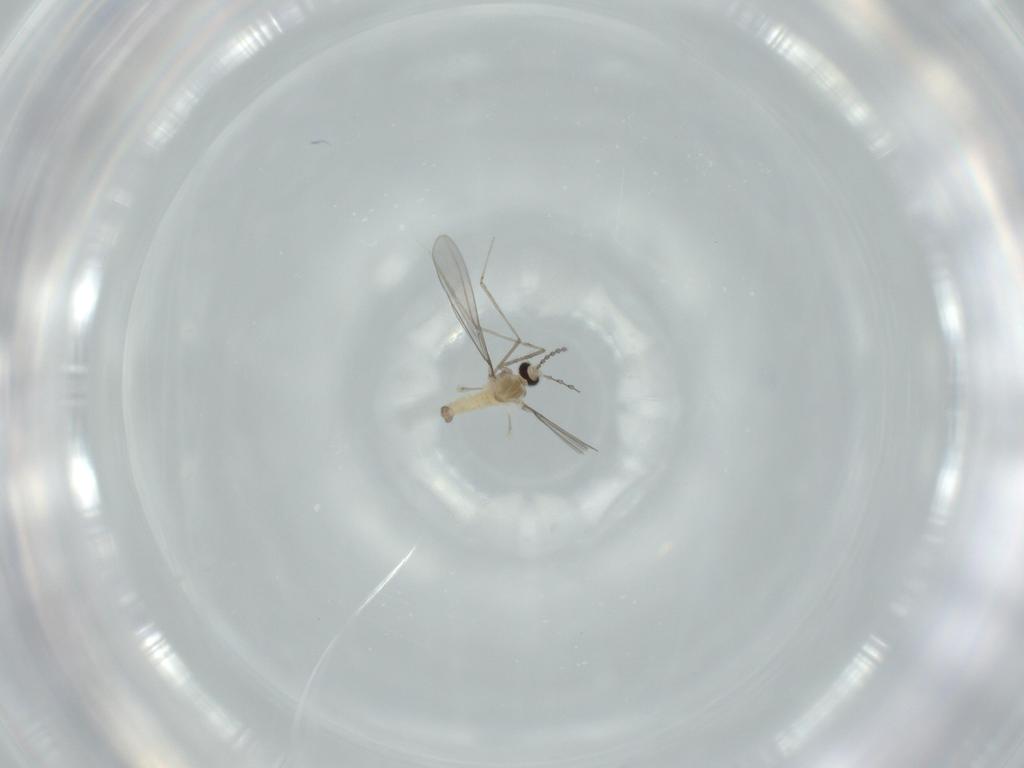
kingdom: Animalia
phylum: Arthropoda
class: Insecta
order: Diptera
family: Cecidomyiidae
